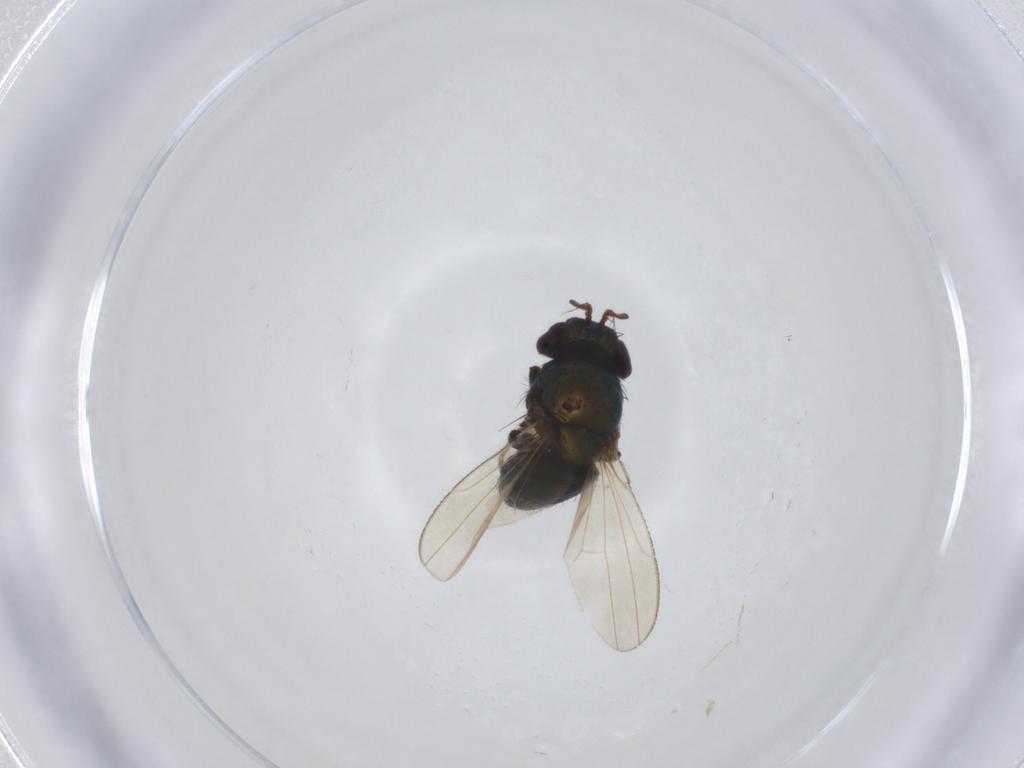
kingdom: Animalia
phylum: Arthropoda
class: Insecta
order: Diptera
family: Ephydridae
